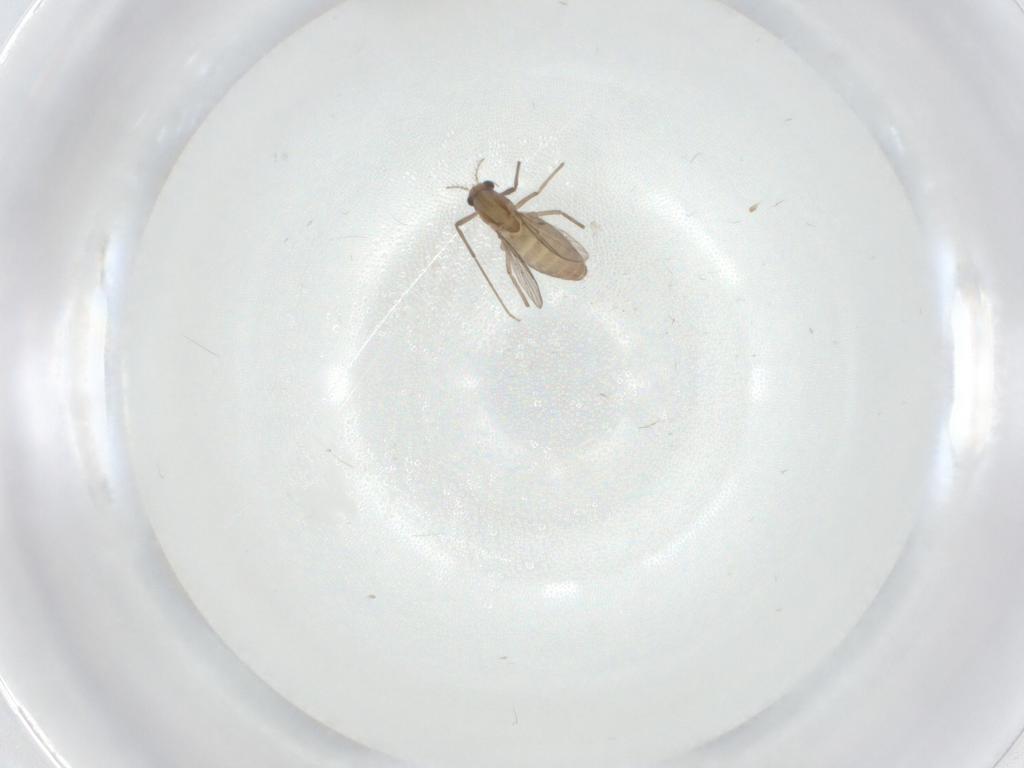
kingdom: Animalia
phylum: Arthropoda
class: Insecta
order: Diptera
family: Chironomidae
